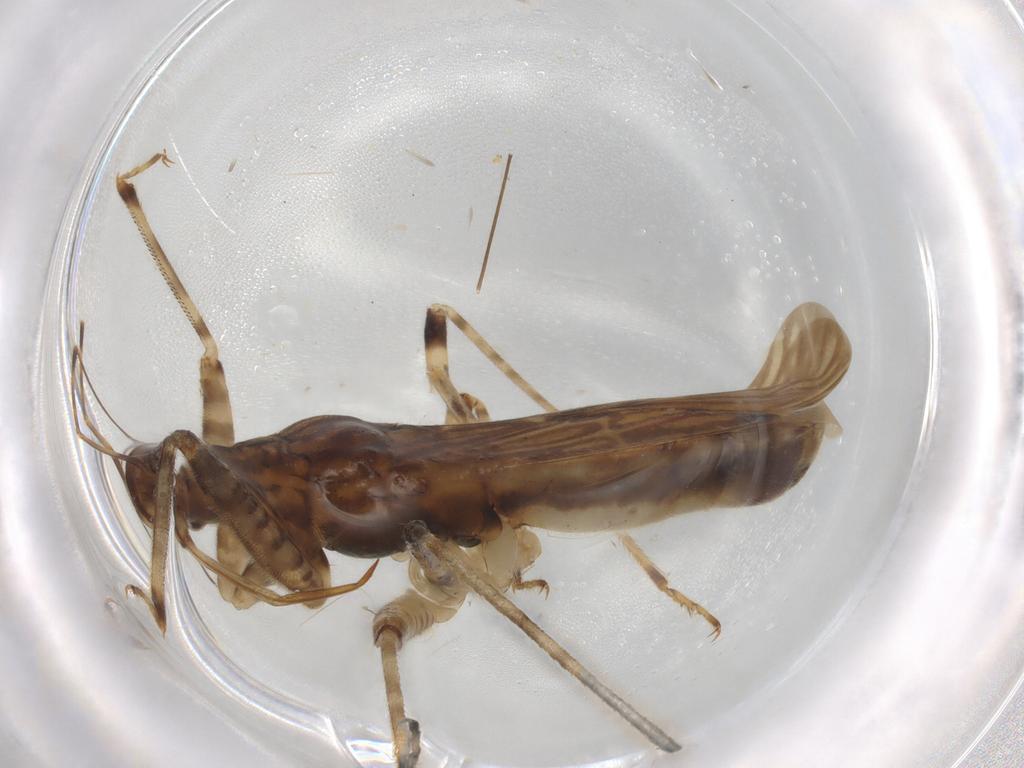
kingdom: Animalia
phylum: Arthropoda
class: Insecta
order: Hemiptera
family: Nabidae
